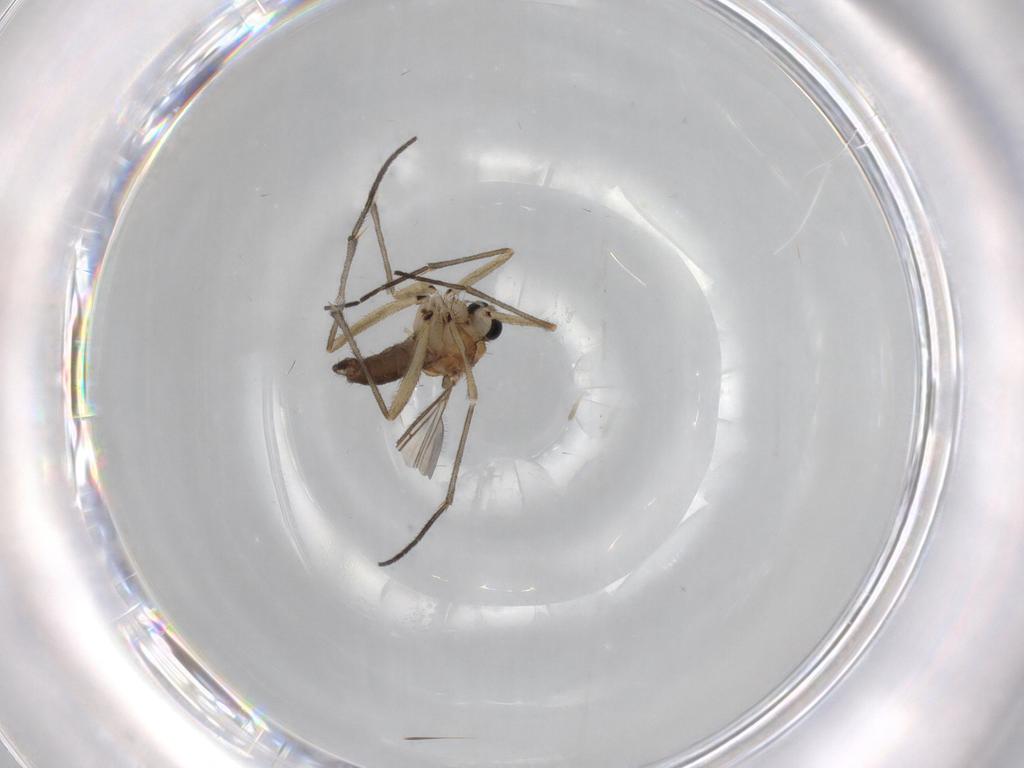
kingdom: Animalia
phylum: Arthropoda
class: Insecta
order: Diptera
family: Sciaridae
